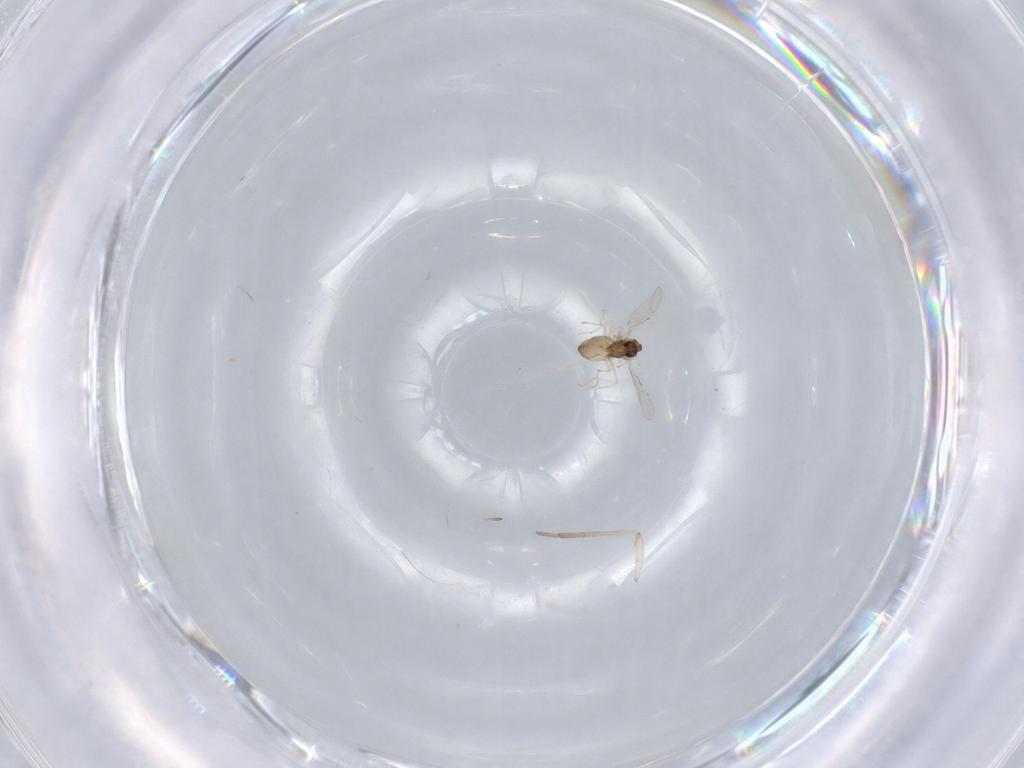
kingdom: Animalia
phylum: Arthropoda
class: Insecta
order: Diptera
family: Chironomidae
